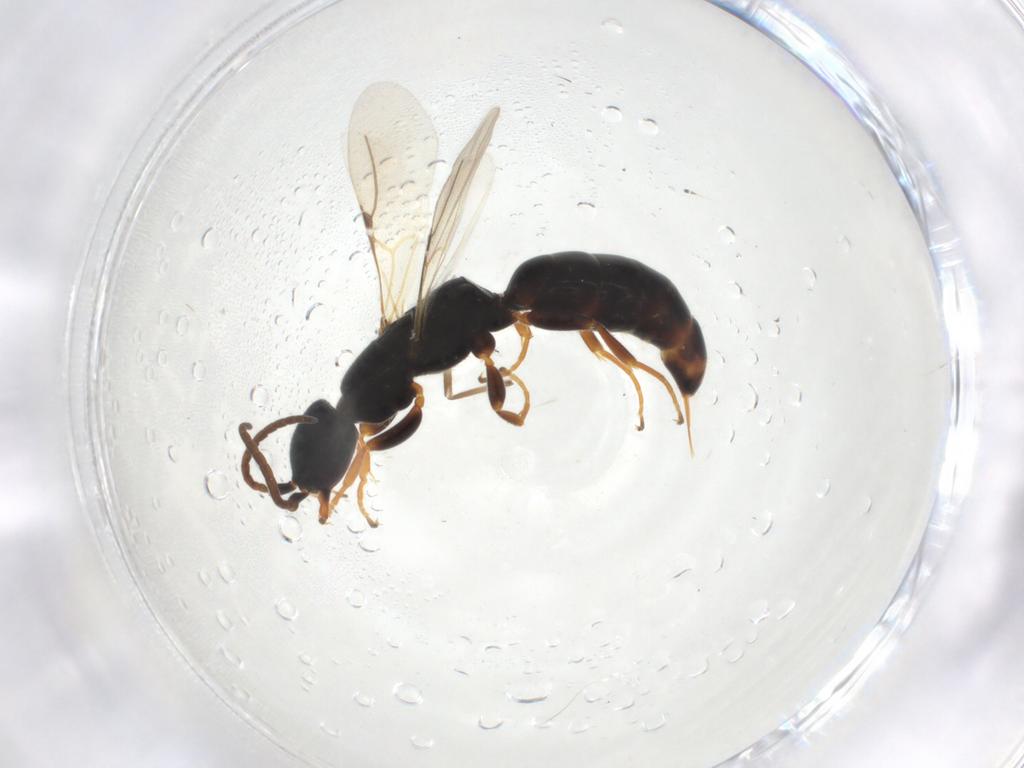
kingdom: Animalia
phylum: Arthropoda
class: Insecta
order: Hymenoptera
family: Bethylidae
